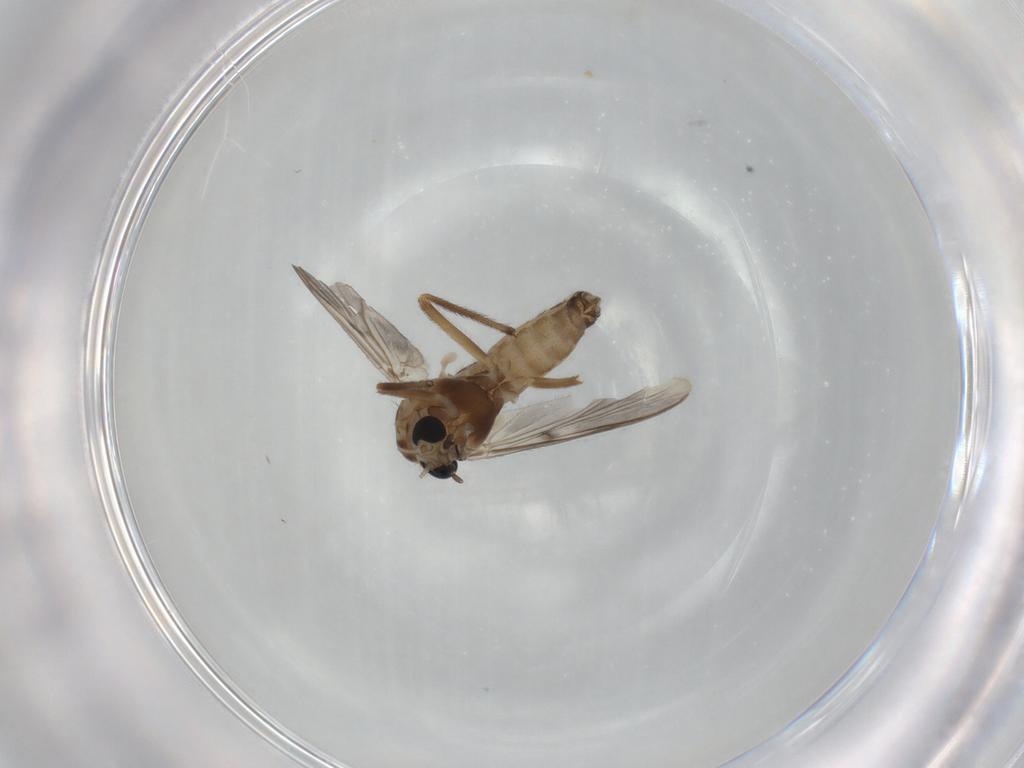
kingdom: Animalia
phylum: Arthropoda
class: Insecta
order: Diptera
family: Chironomidae
